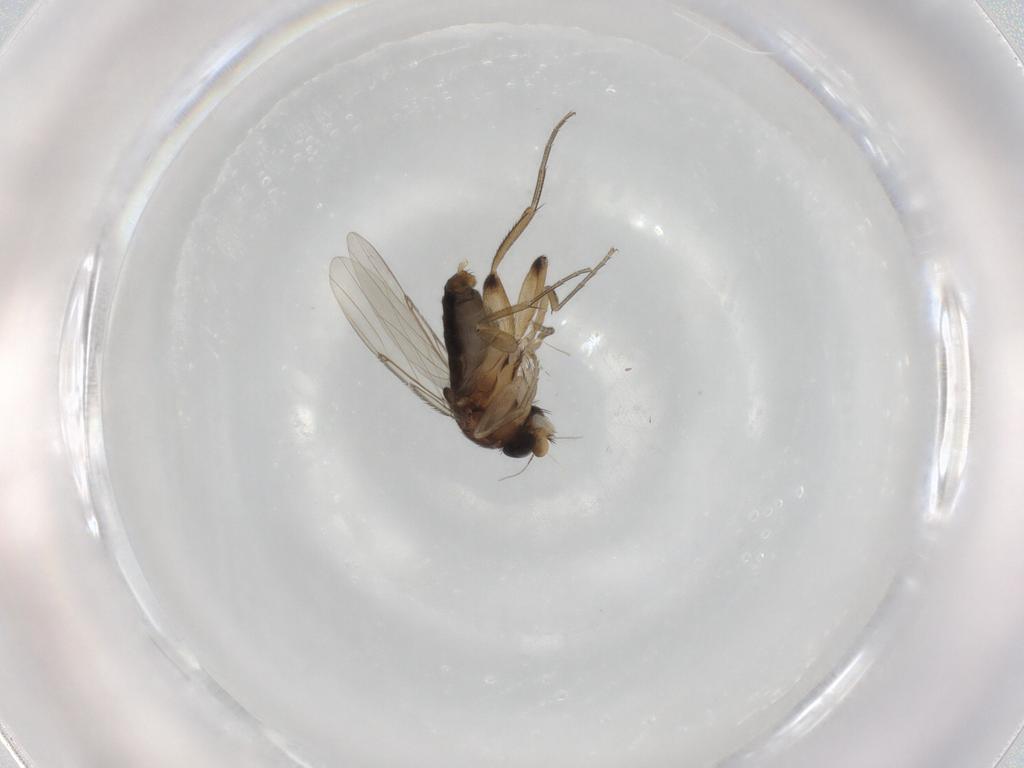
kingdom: Animalia
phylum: Arthropoda
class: Insecta
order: Diptera
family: Phoridae
